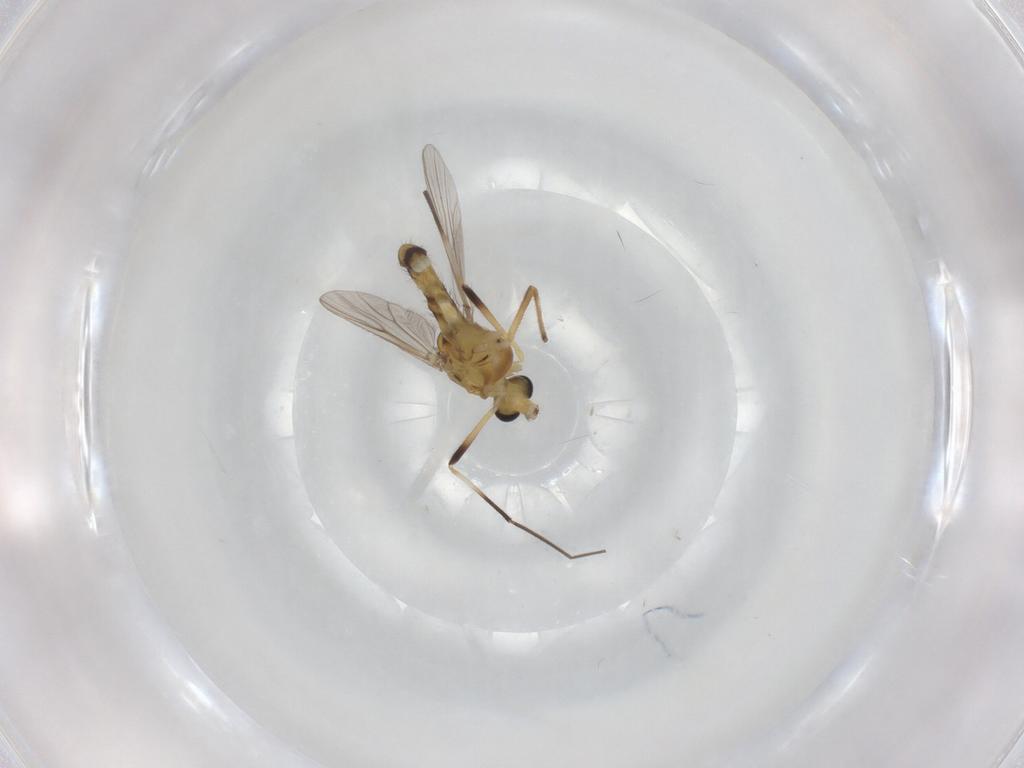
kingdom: Animalia
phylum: Arthropoda
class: Insecta
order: Diptera
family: Chironomidae
